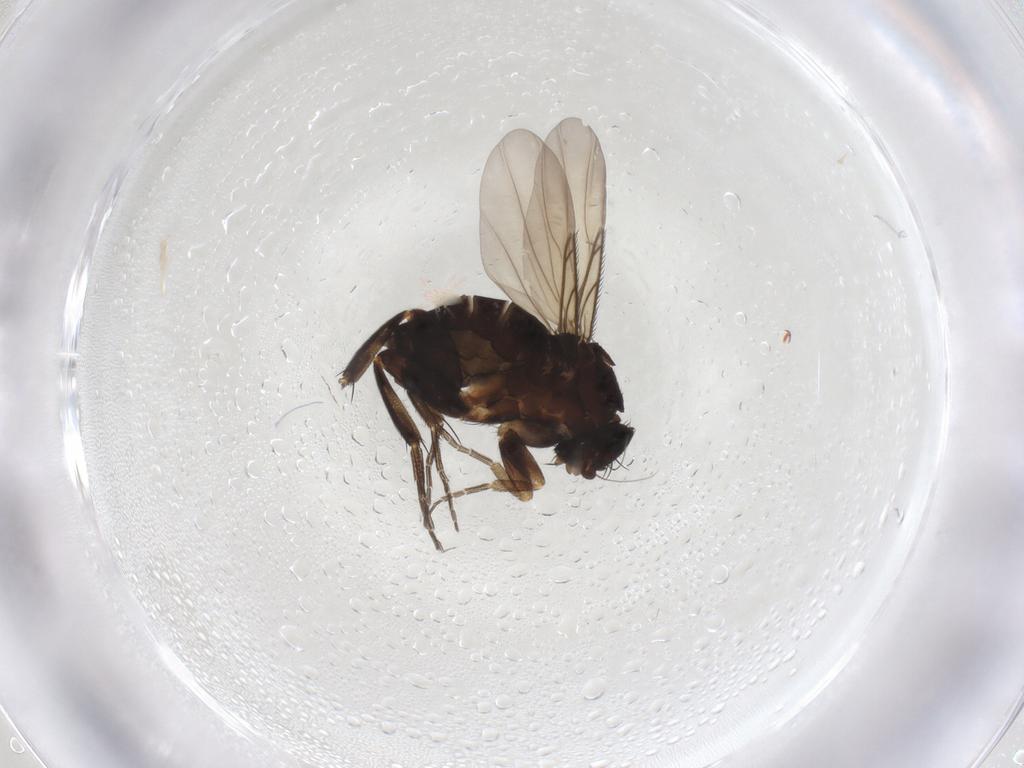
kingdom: Animalia
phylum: Arthropoda
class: Insecta
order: Diptera
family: Phoridae
